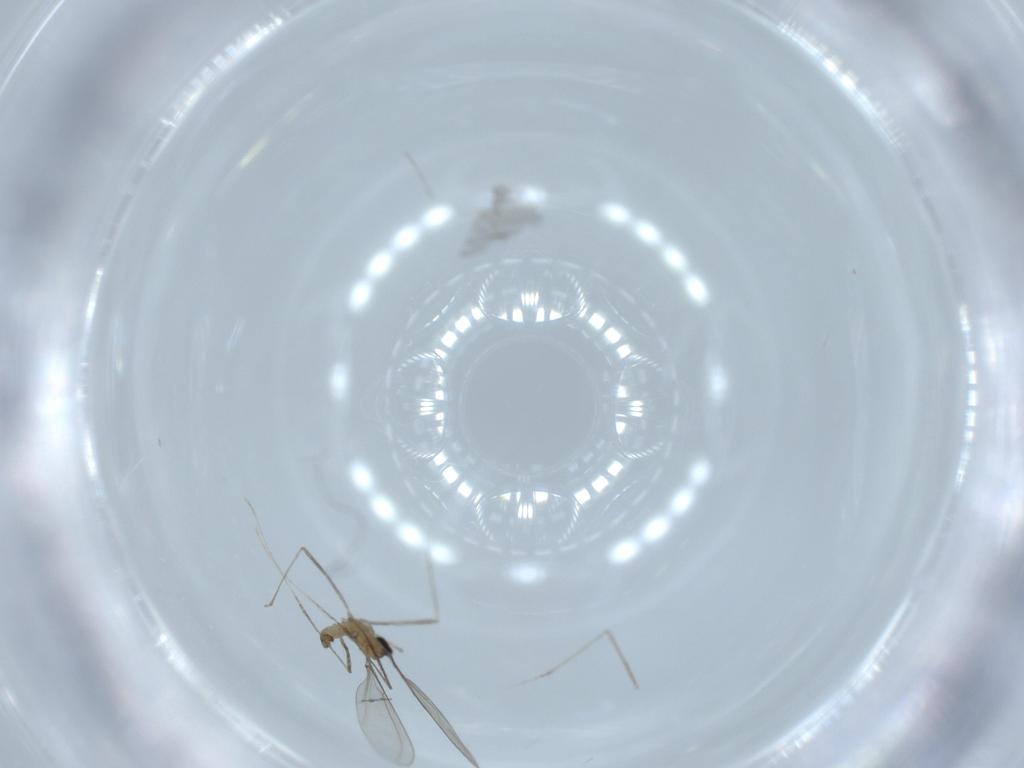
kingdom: Animalia
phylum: Arthropoda
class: Insecta
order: Diptera
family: Cecidomyiidae
